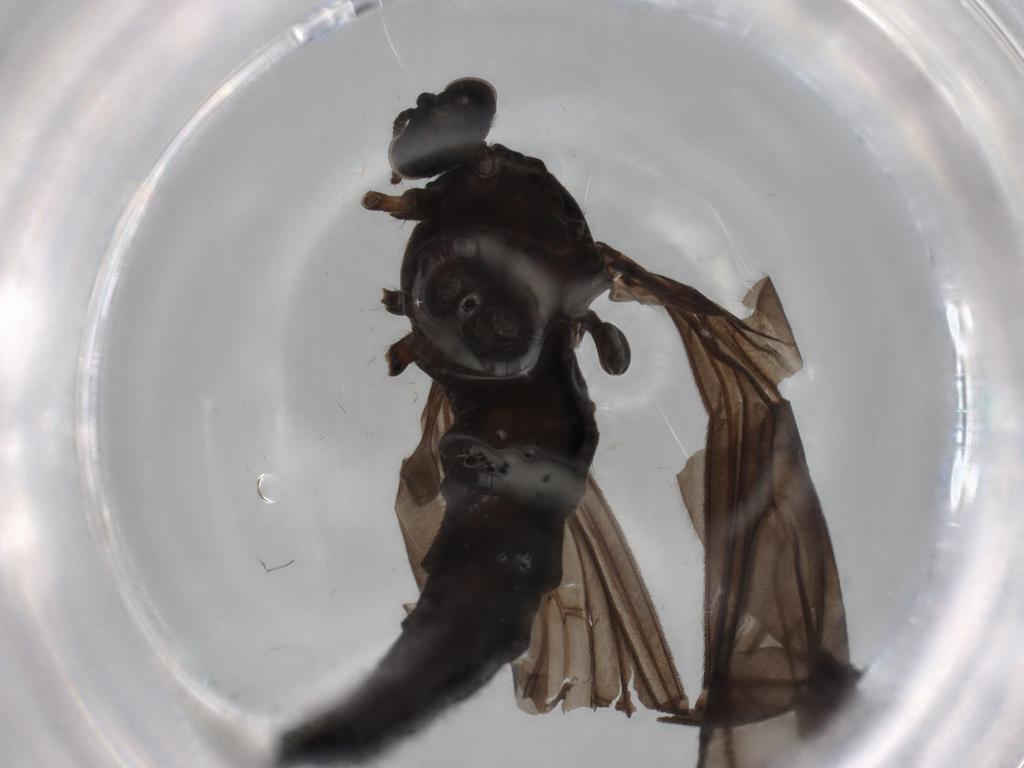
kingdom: Animalia
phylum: Arthropoda
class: Insecta
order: Diptera
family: Bibionidae
